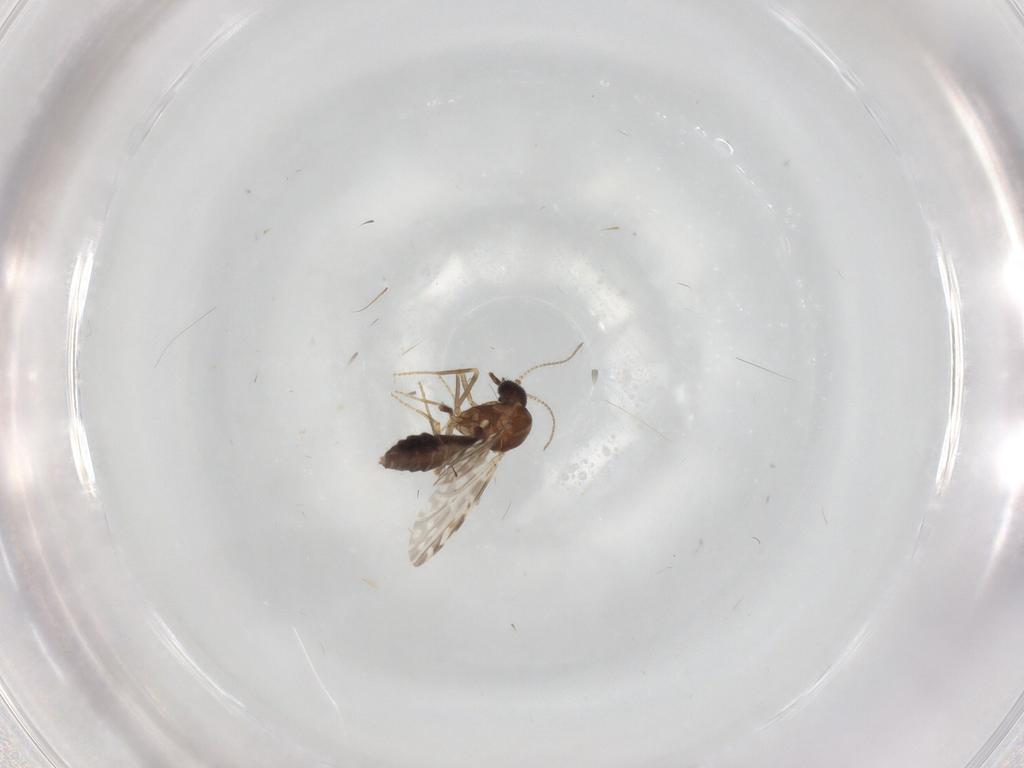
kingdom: Animalia
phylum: Arthropoda
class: Insecta
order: Diptera
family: Ceratopogonidae
